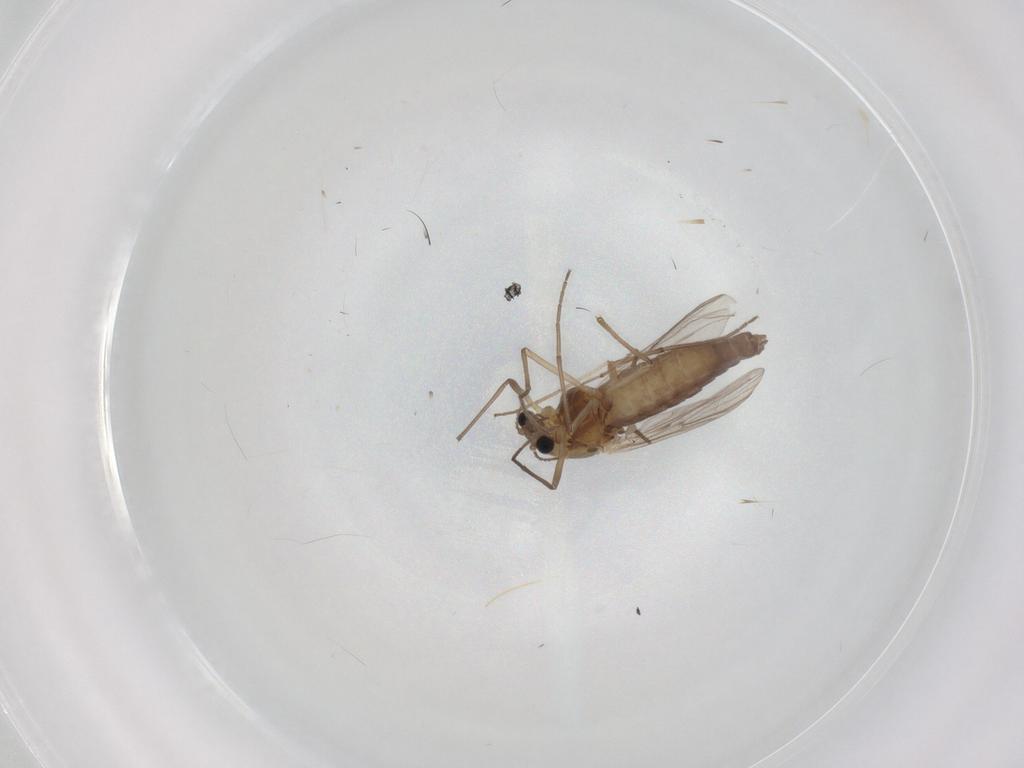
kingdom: Animalia
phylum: Arthropoda
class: Insecta
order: Diptera
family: Chironomidae
